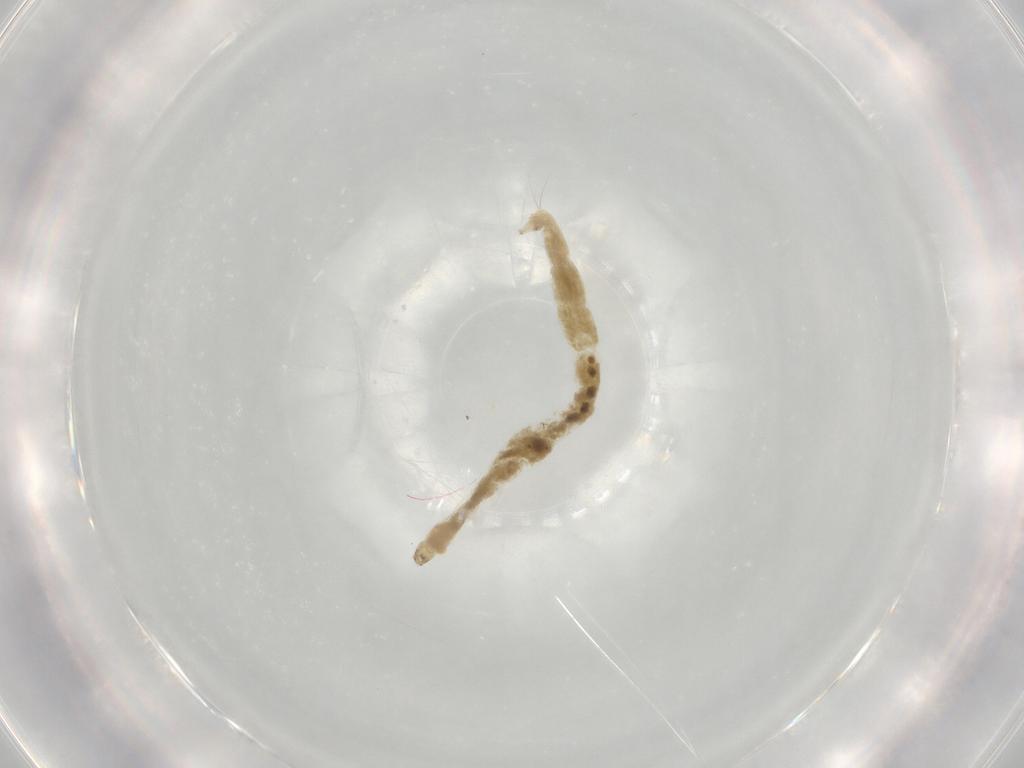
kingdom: Animalia
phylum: Arthropoda
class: Insecta
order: Diptera
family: Chironomidae
